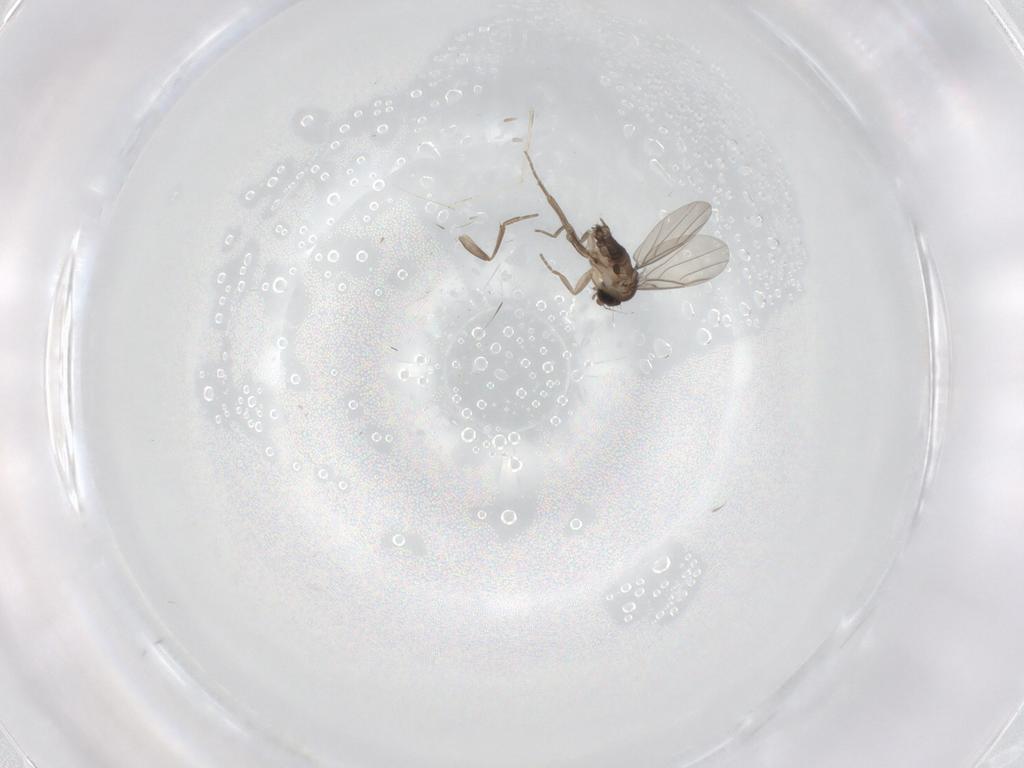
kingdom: Animalia
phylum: Arthropoda
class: Insecta
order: Diptera
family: Phoridae
